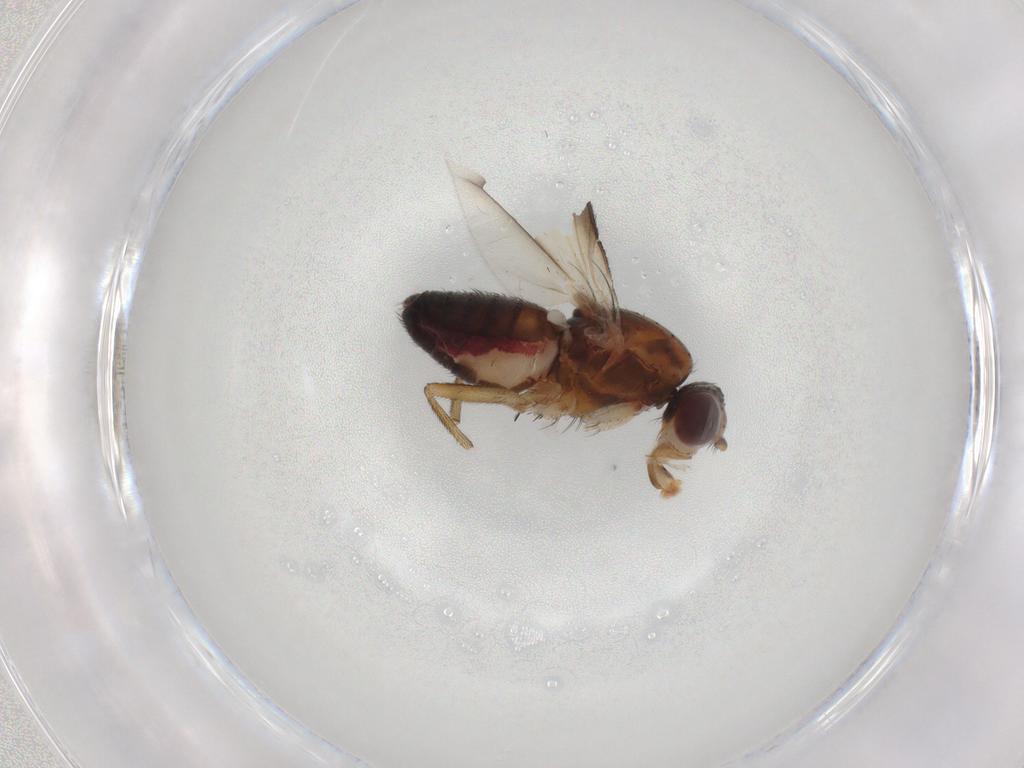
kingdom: Animalia
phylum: Arthropoda
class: Insecta
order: Diptera
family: Heleomyzidae
